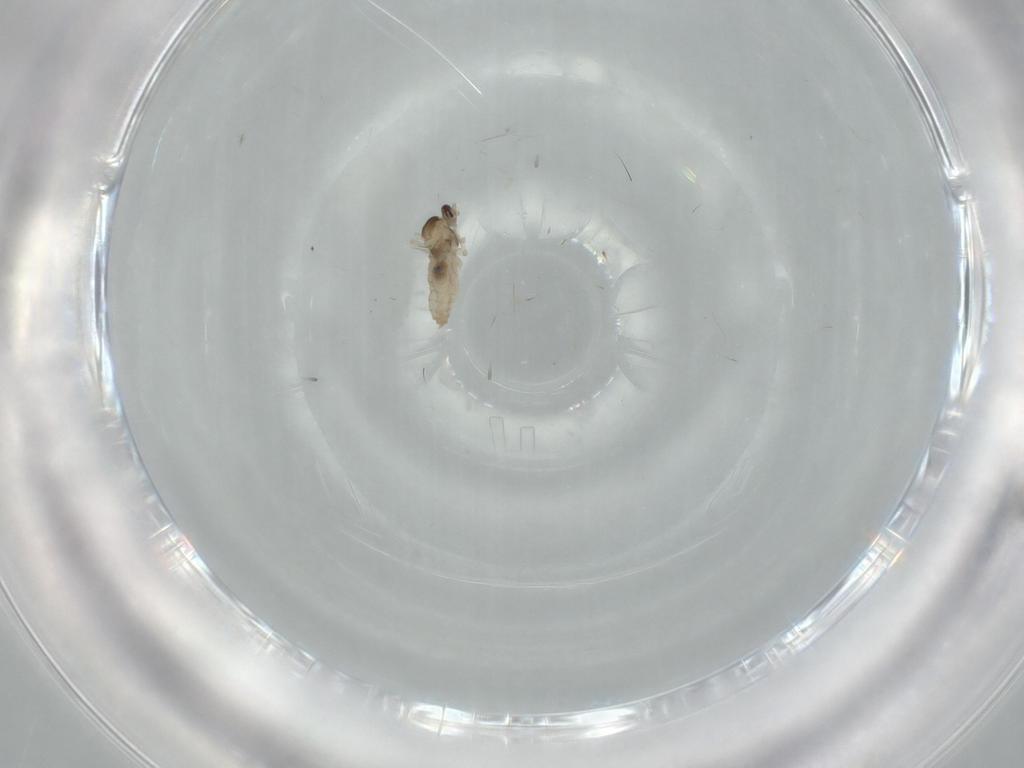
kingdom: Animalia
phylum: Arthropoda
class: Insecta
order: Diptera
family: Cecidomyiidae
